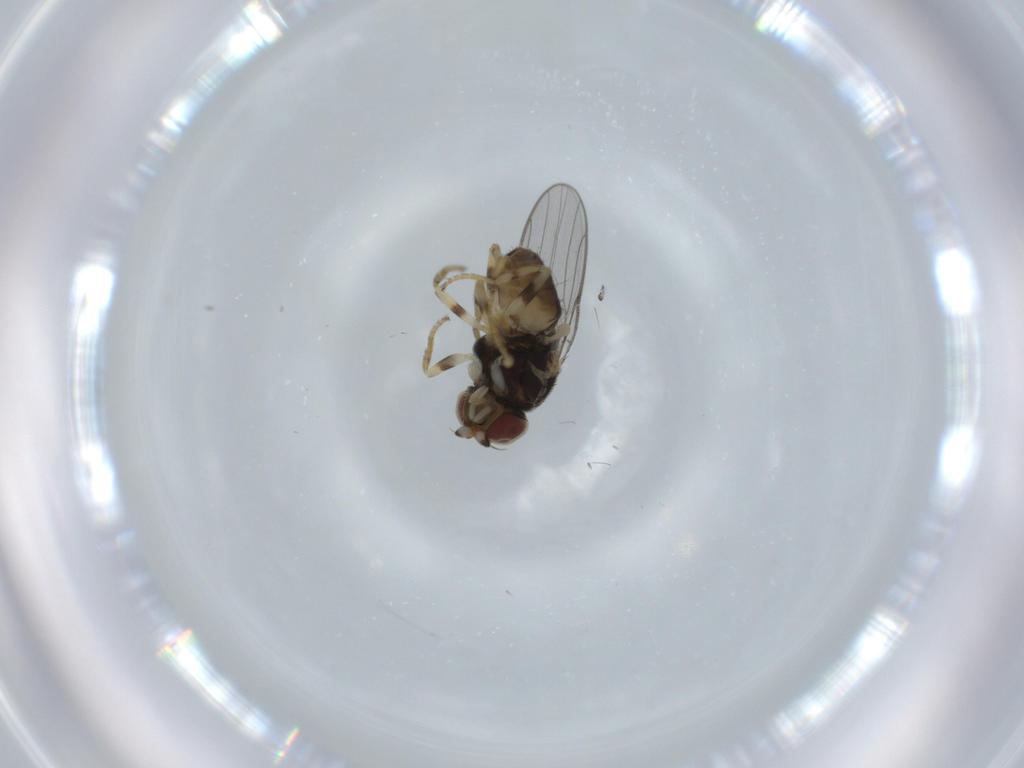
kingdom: Animalia
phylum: Arthropoda
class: Insecta
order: Diptera
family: Chloropidae
